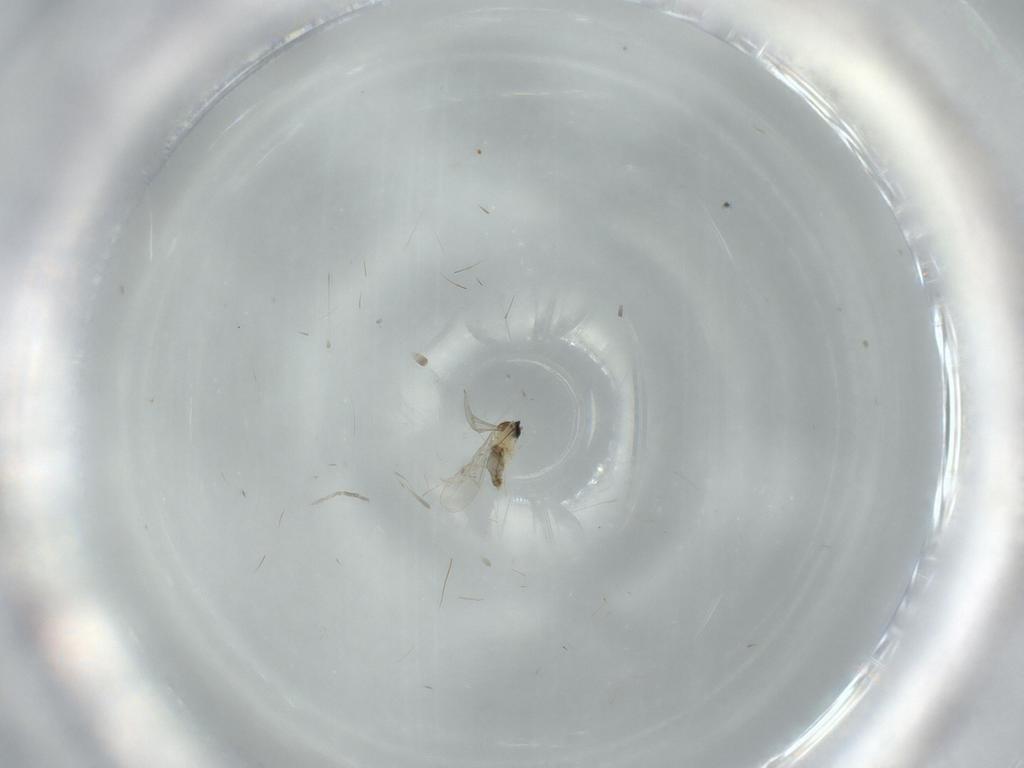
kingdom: Animalia
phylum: Arthropoda
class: Insecta
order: Diptera
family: Fannia
